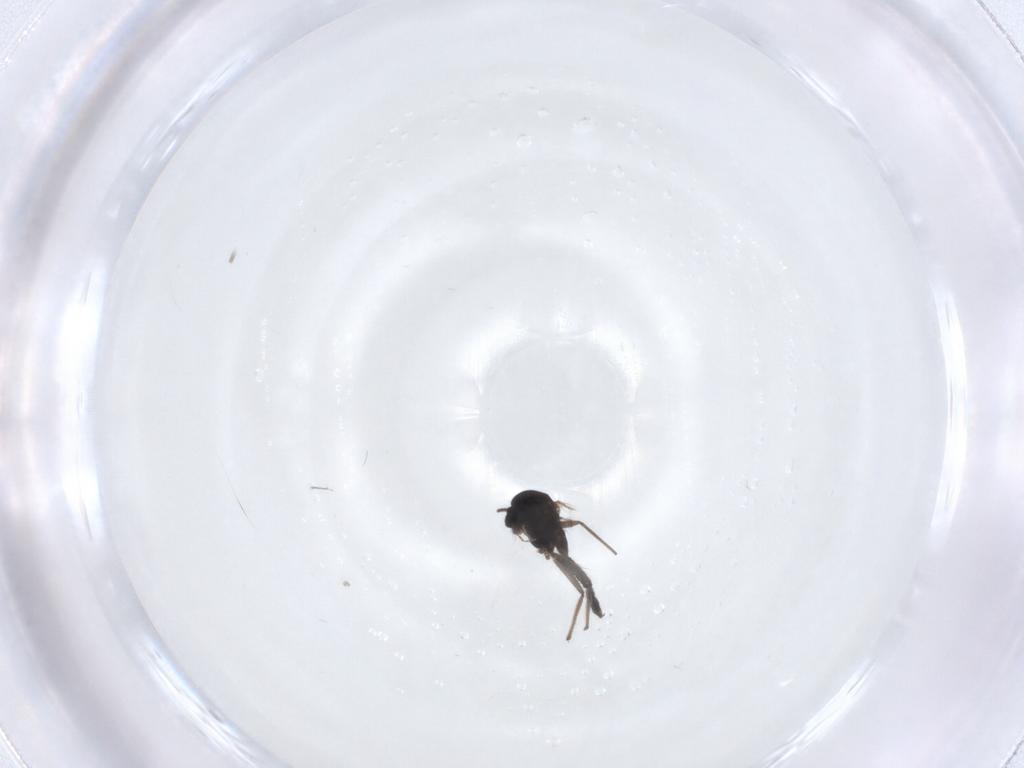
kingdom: Animalia
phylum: Arthropoda
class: Insecta
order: Diptera
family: Chironomidae
